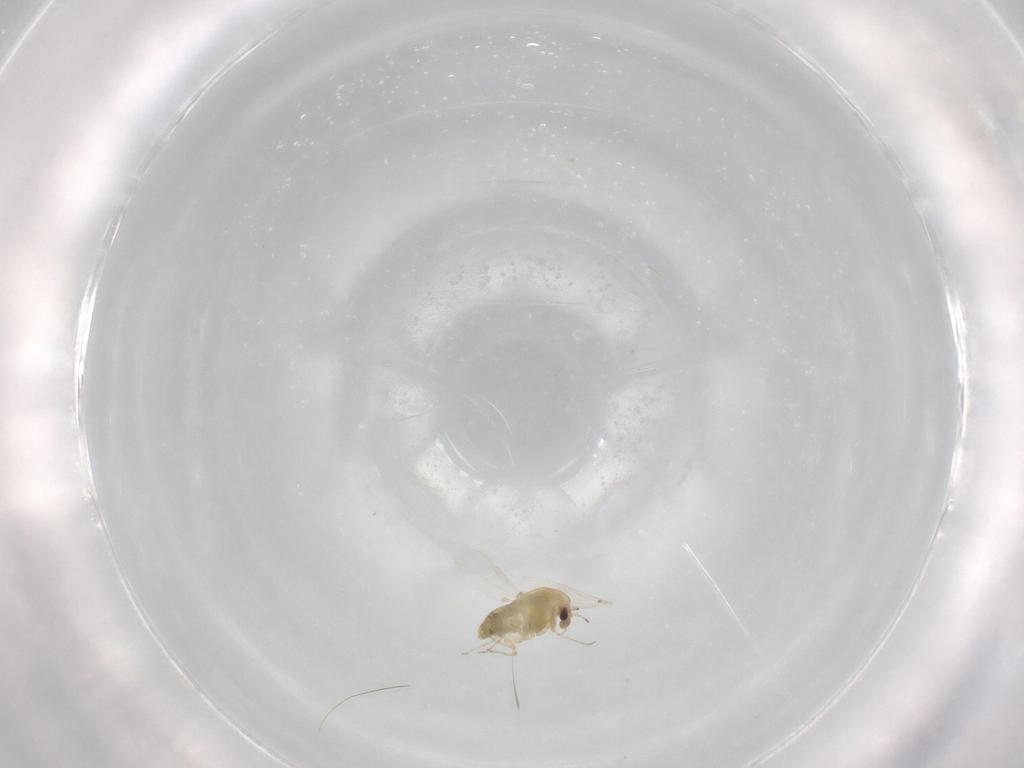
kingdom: Animalia
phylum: Arthropoda
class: Insecta
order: Diptera
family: Chironomidae
